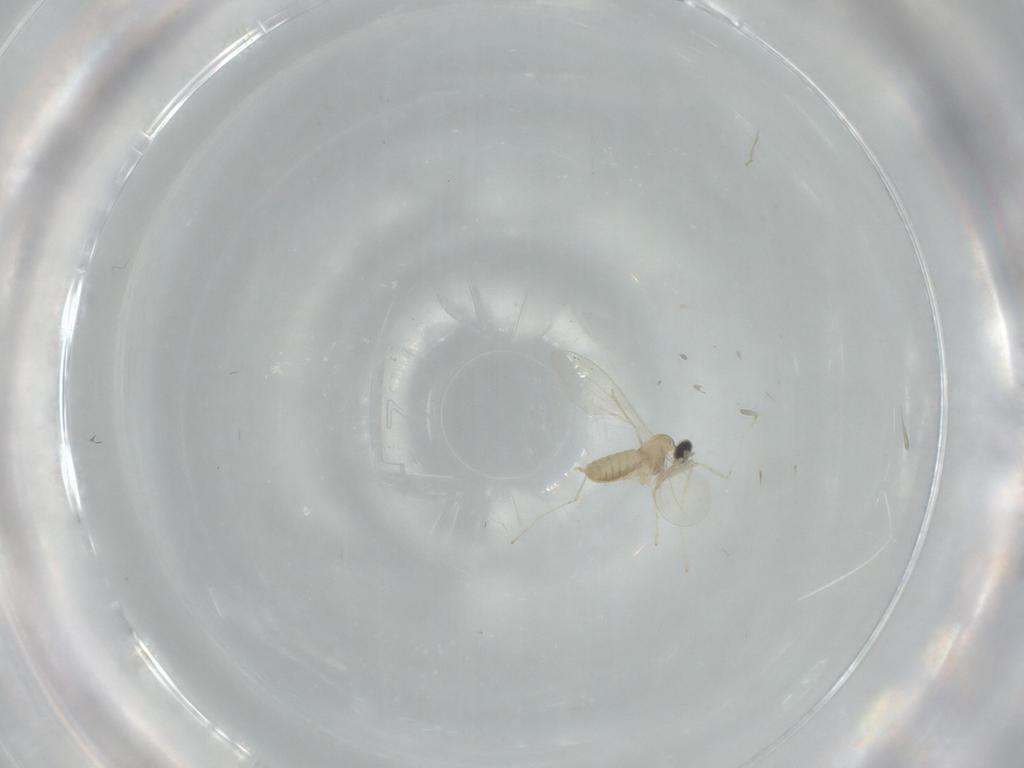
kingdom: Animalia
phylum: Arthropoda
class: Insecta
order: Diptera
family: Cecidomyiidae
